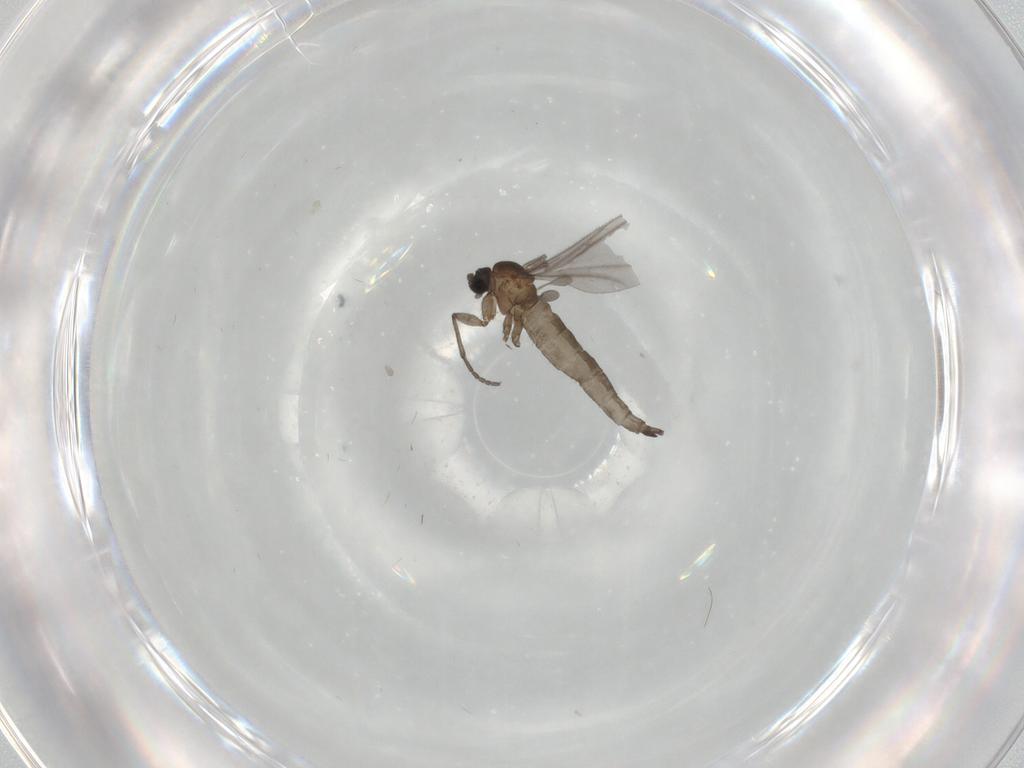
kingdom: Animalia
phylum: Arthropoda
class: Insecta
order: Diptera
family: Sciaridae
